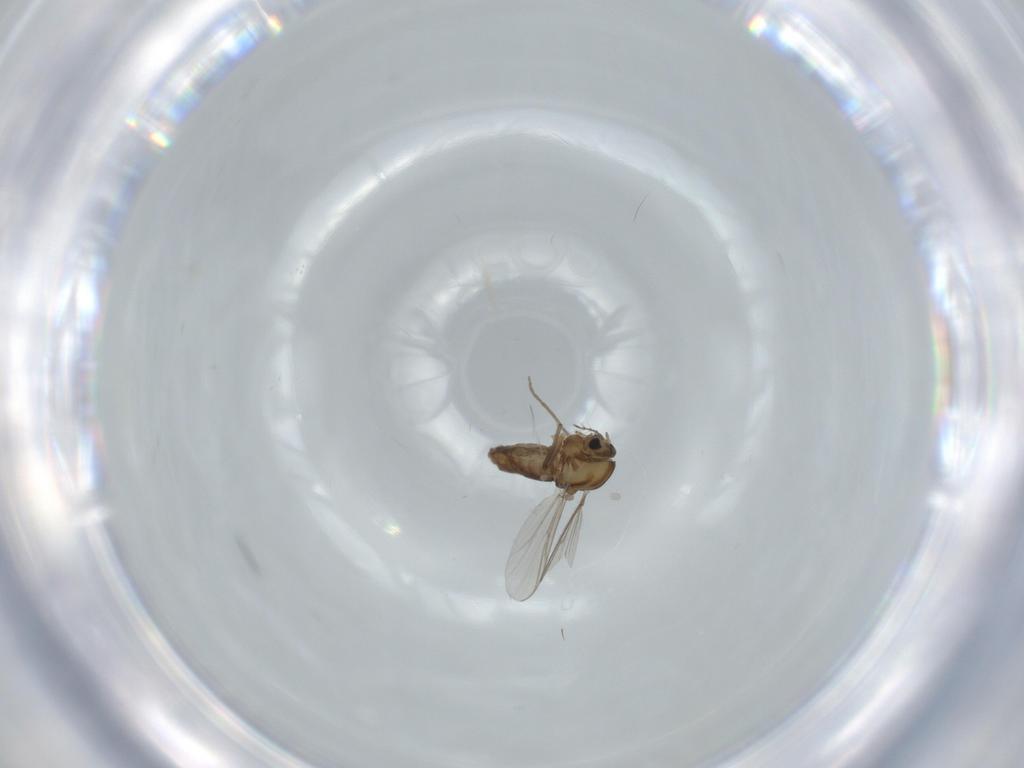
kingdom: Animalia
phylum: Arthropoda
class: Insecta
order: Diptera
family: Chironomidae
